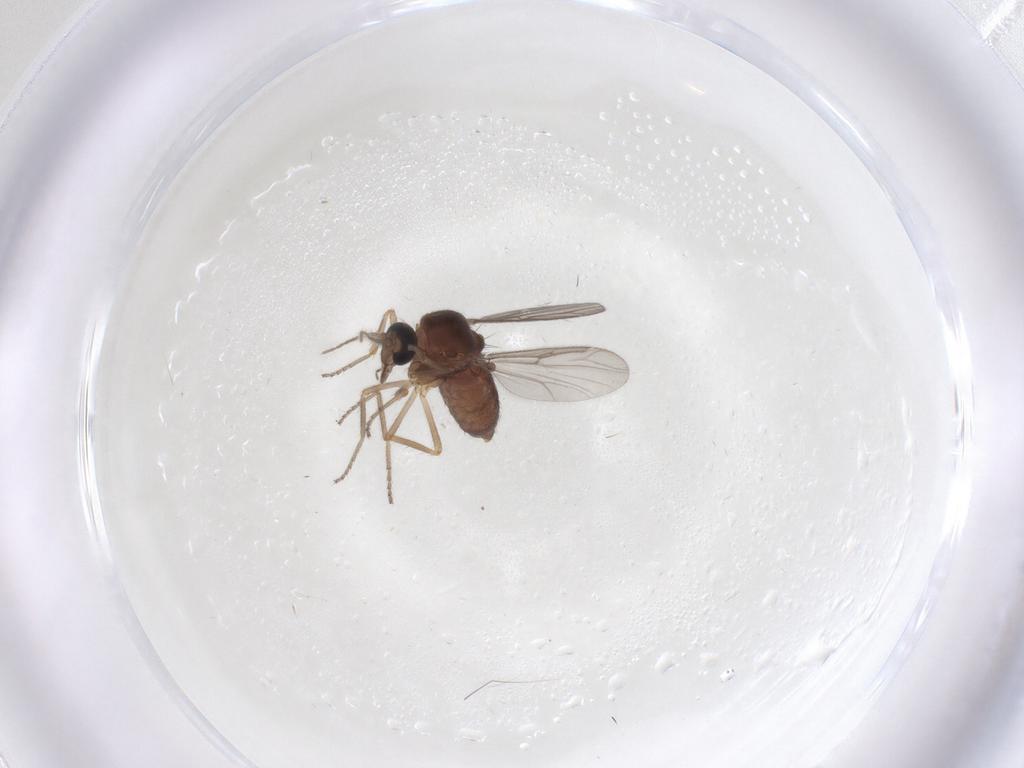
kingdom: Animalia
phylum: Arthropoda
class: Insecta
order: Diptera
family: Ceratopogonidae
